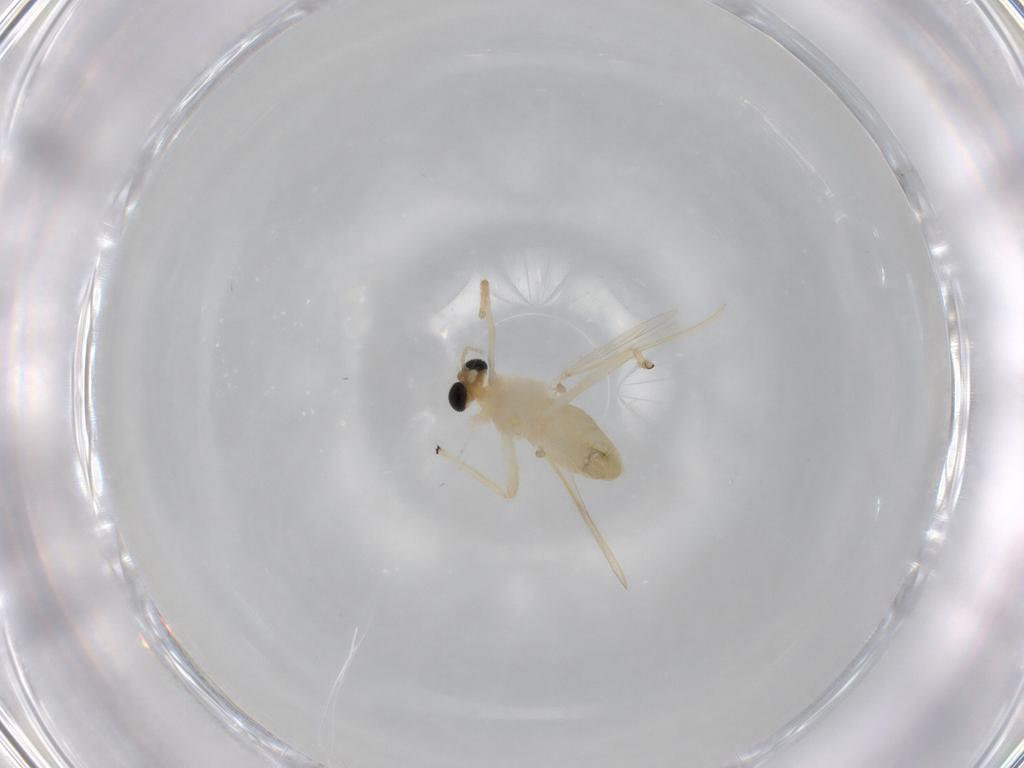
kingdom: Animalia
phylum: Arthropoda
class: Insecta
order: Diptera
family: Chironomidae
